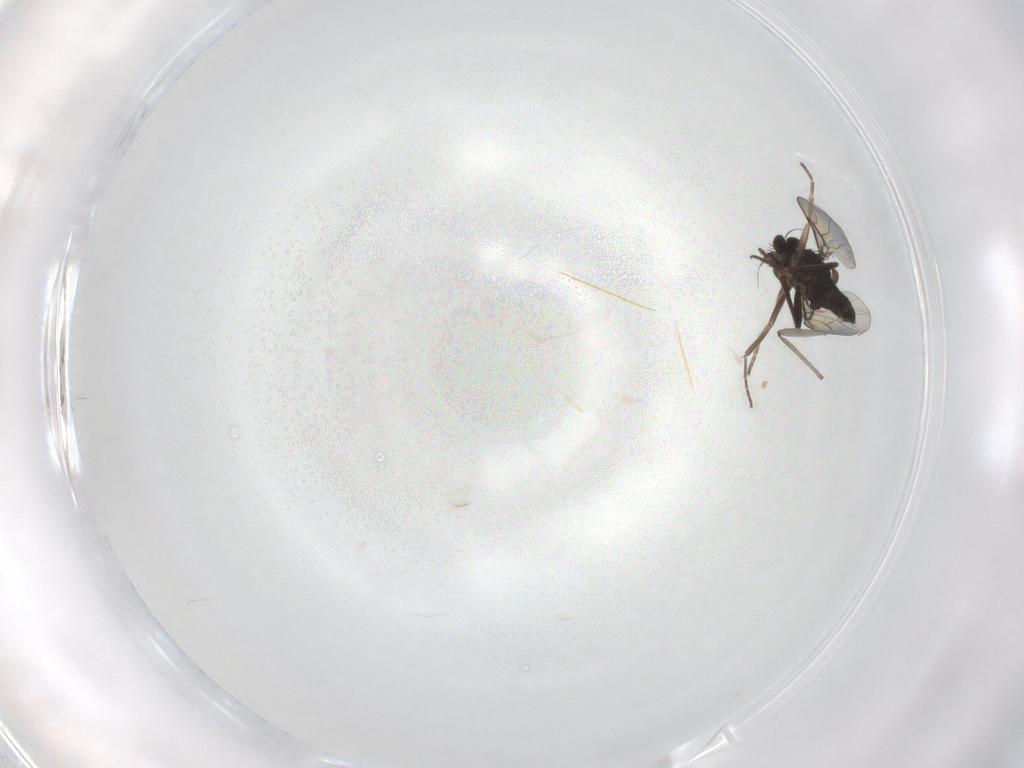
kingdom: Animalia
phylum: Arthropoda
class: Insecta
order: Diptera
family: Phoridae
